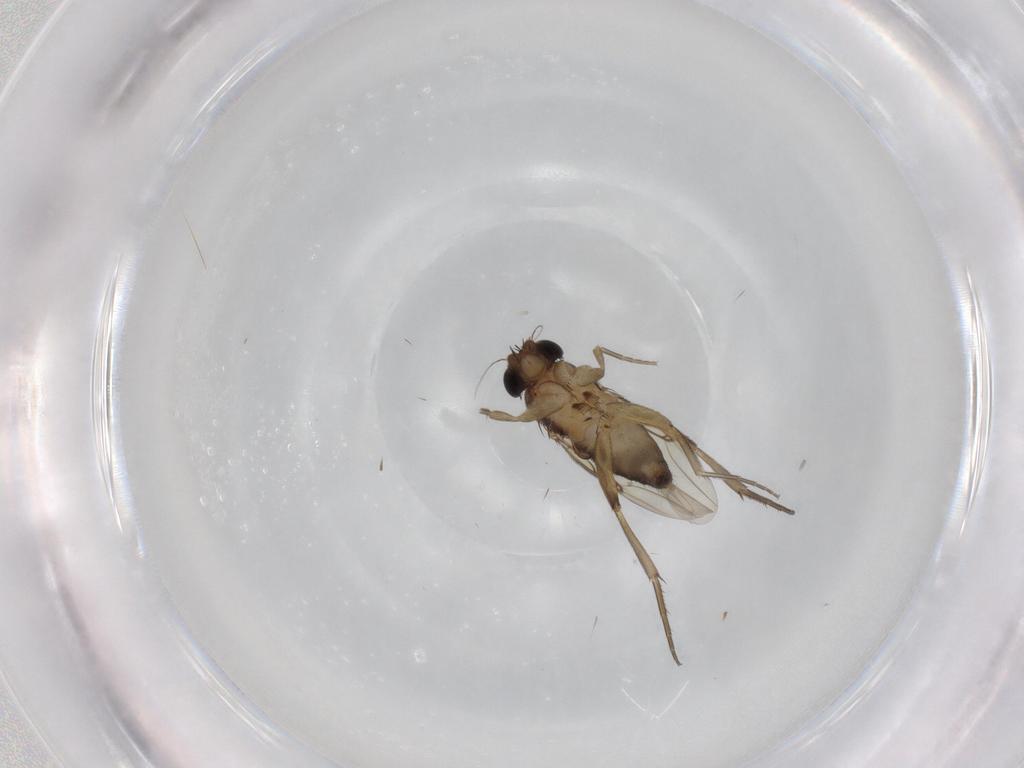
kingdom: Animalia
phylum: Arthropoda
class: Insecta
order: Diptera
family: Phoridae
